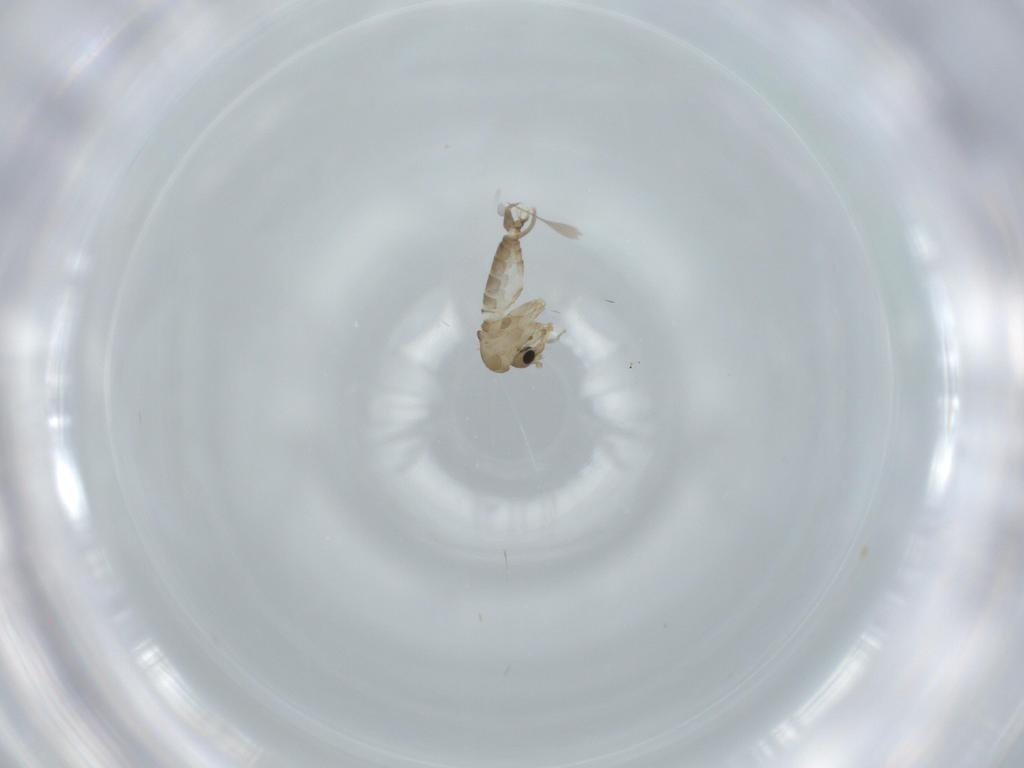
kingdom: Animalia
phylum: Arthropoda
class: Insecta
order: Diptera
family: Psychodidae
